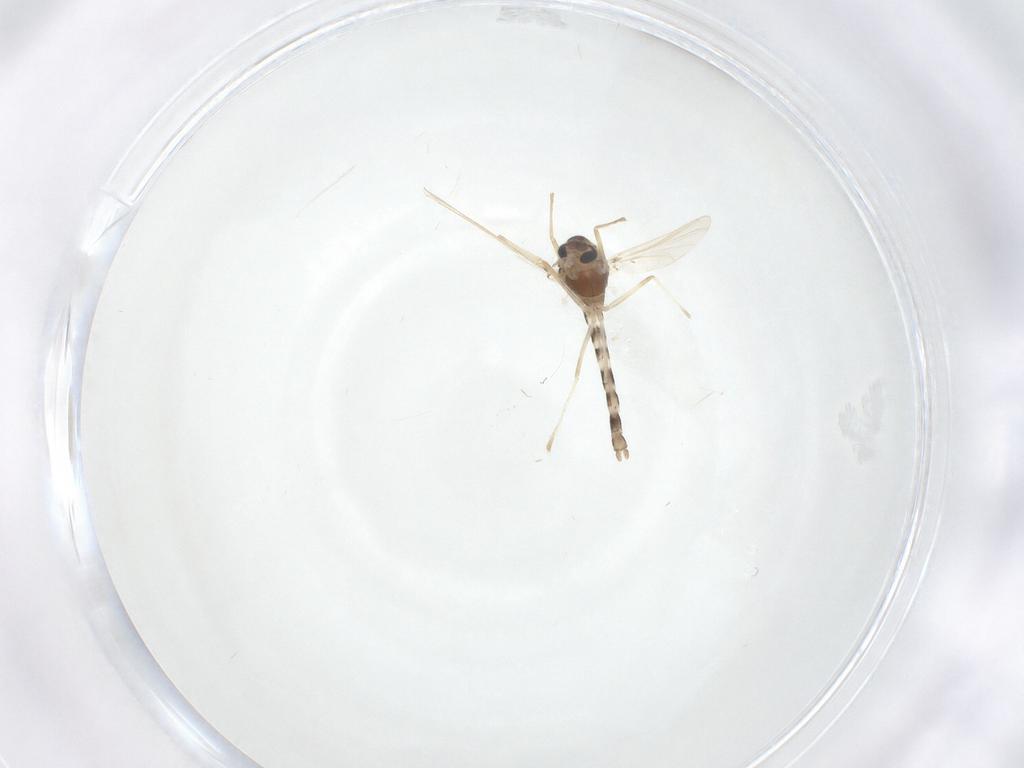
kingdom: Animalia
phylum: Arthropoda
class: Insecta
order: Diptera
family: Chironomidae
